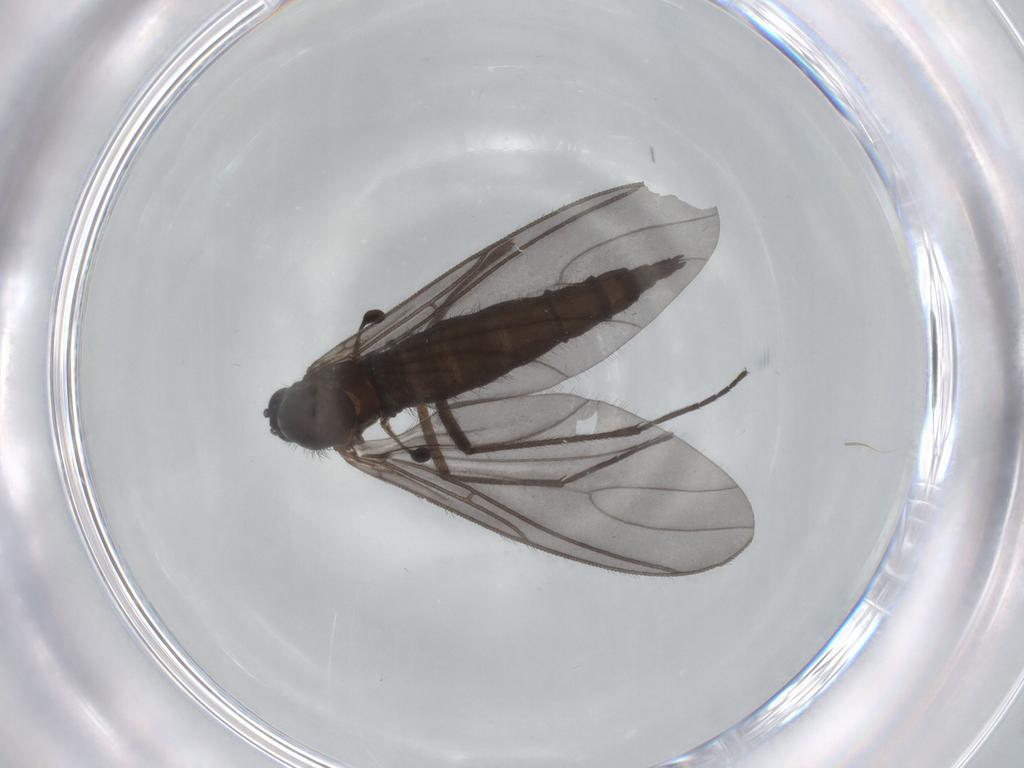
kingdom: Animalia
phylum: Arthropoda
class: Insecta
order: Diptera
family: Sciaridae
